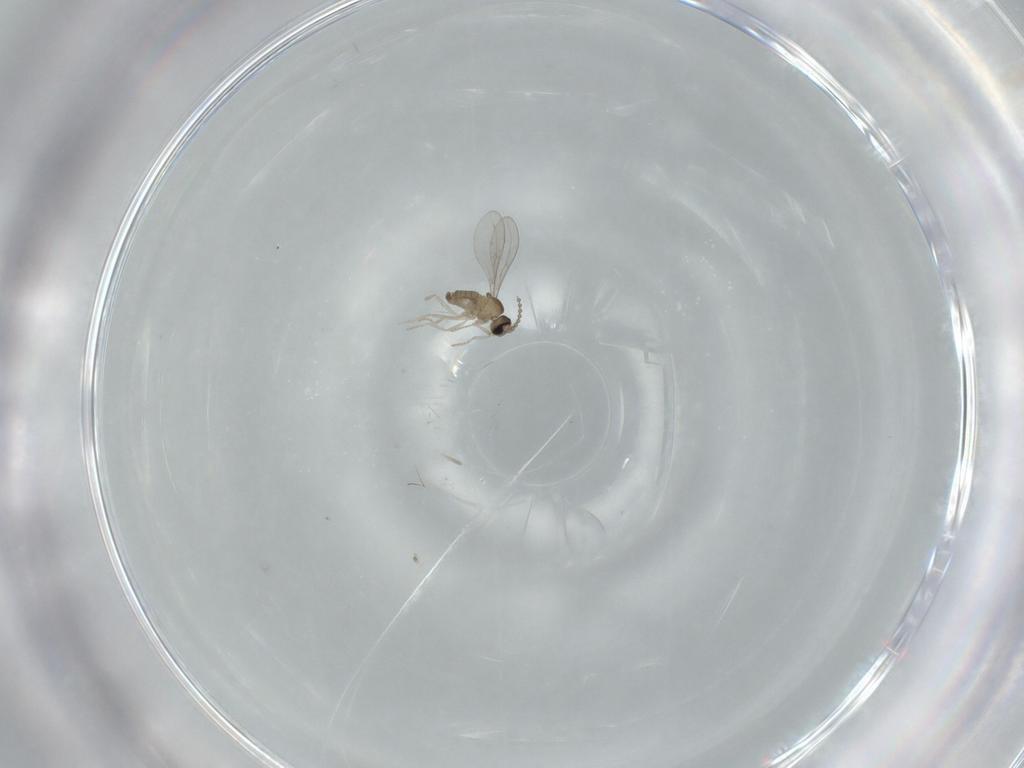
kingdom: Animalia
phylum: Arthropoda
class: Insecta
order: Diptera
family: Cecidomyiidae
